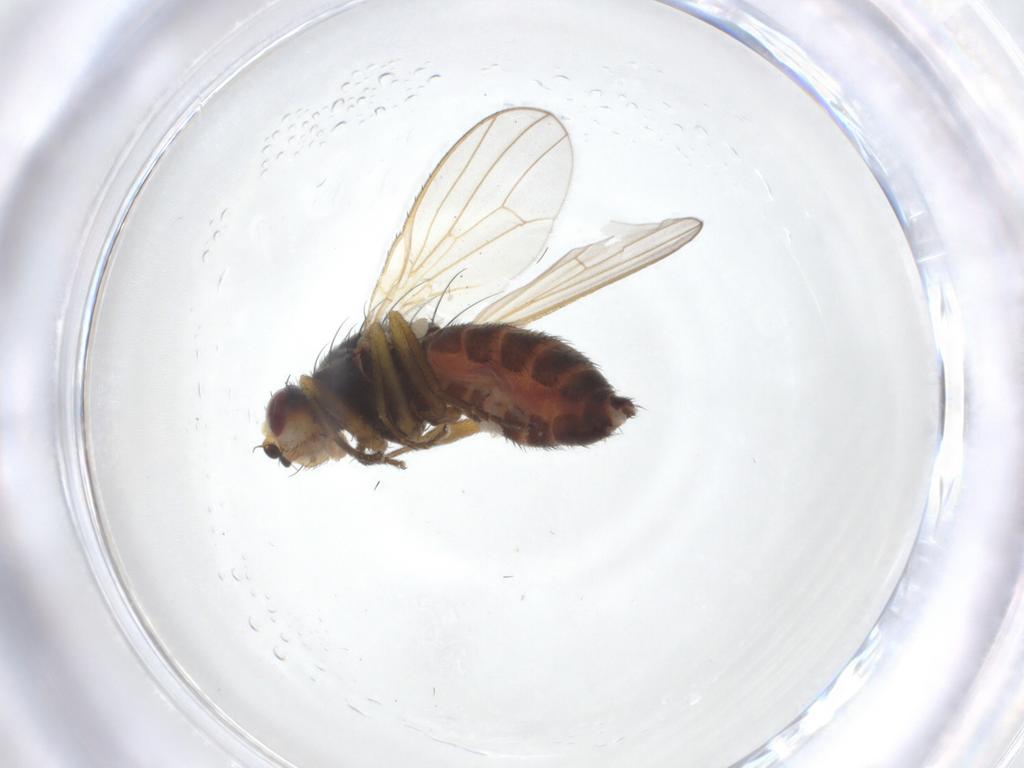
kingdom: Animalia
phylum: Arthropoda
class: Insecta
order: Diptera
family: Heleomyzidae
